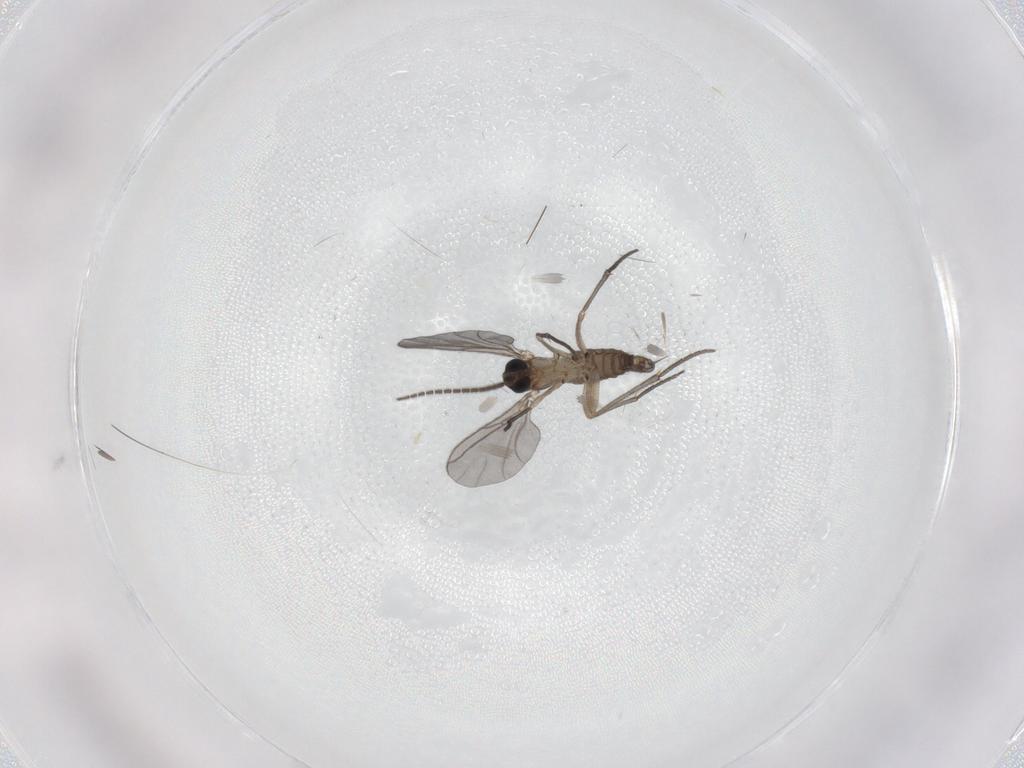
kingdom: Animalia
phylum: Arthropoda
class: Insecta
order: Diptera
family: Sciaridae
